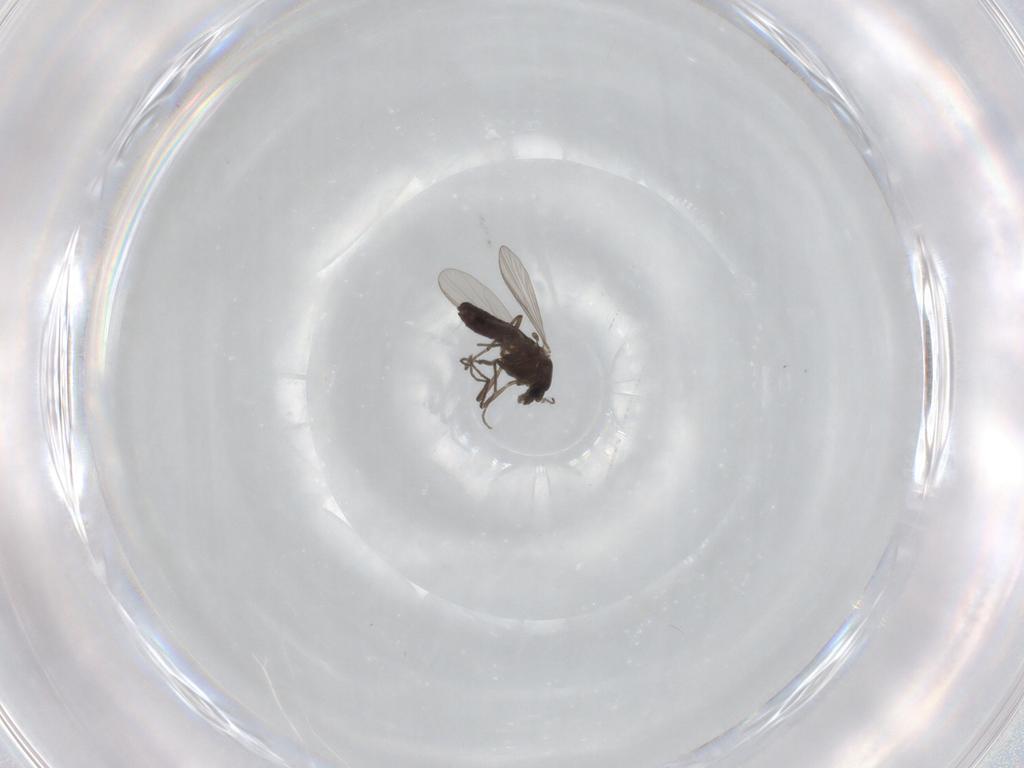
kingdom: Animalia
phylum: Arthropoda
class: Insecta
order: Diptera
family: Chironomidae
